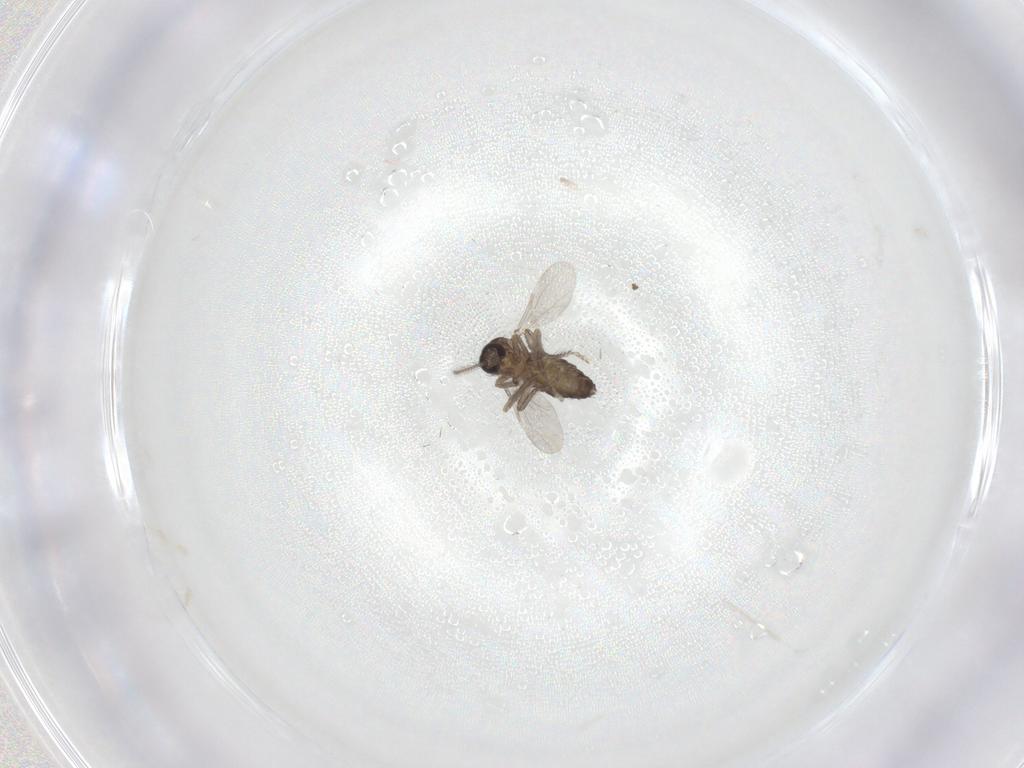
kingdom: Animalia
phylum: Arthropoda
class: Insecta
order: Diptera
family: Ceratopogonidae
